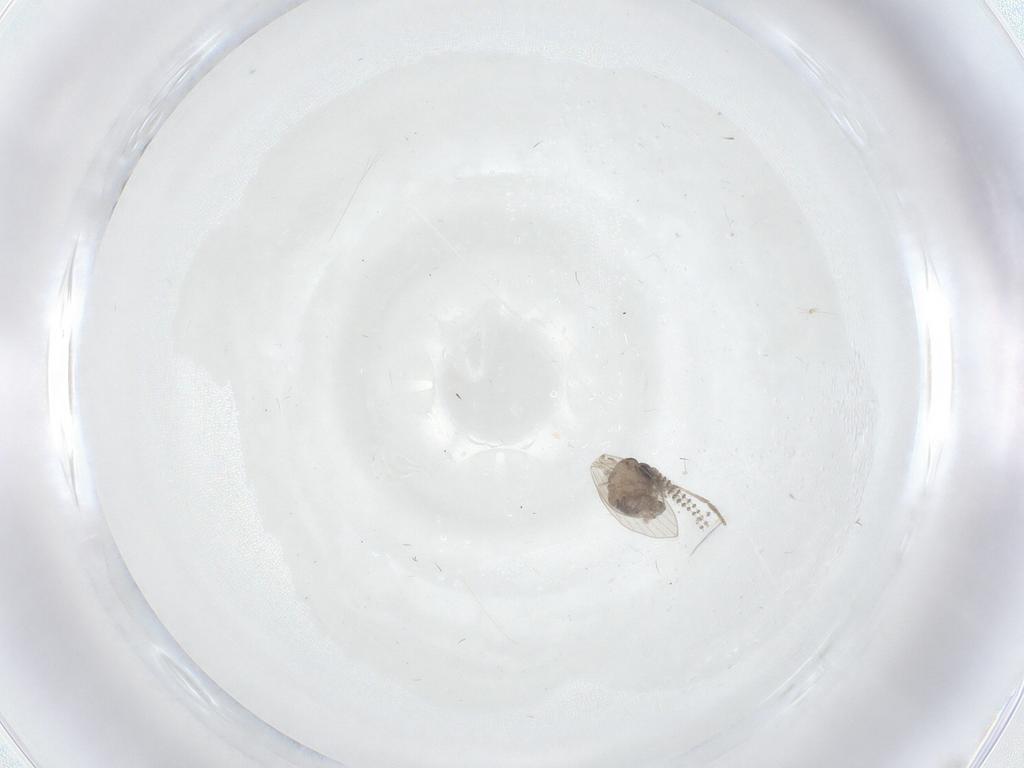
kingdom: Animalia
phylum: Arthropoda
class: Insecta
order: Diptera
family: Psychodidae
